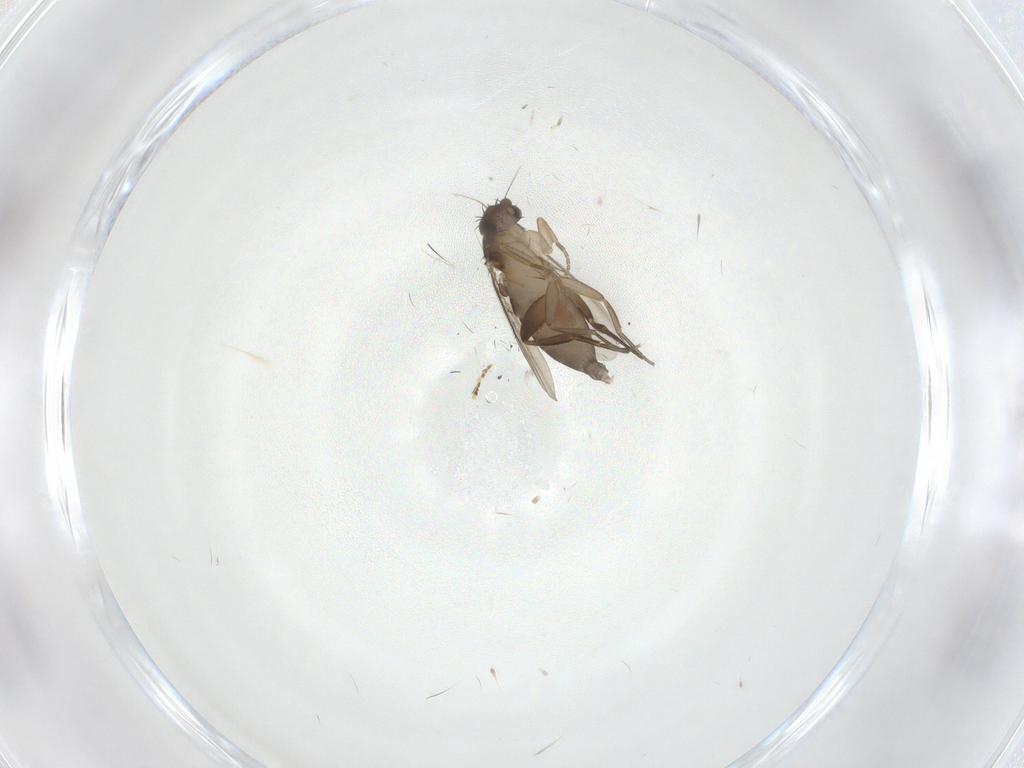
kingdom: Animalia
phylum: Arthropoda
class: Insecta
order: Diptera
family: Phoridae
